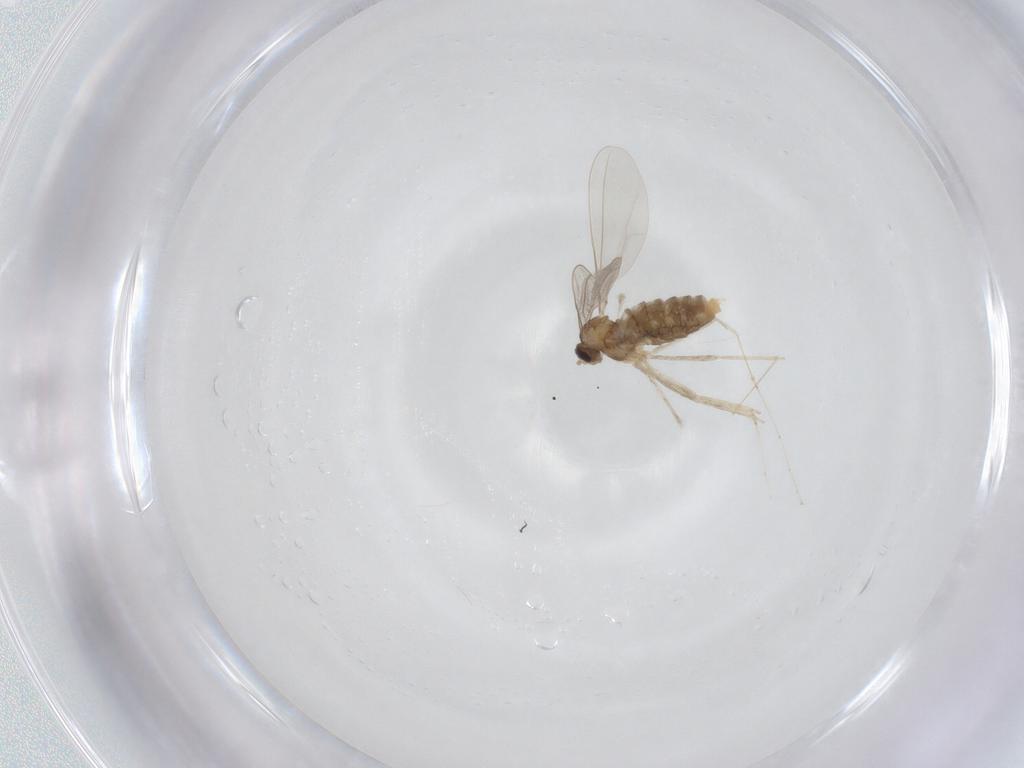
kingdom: Animalia
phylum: Arthropoda
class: Insecta
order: Diptera
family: Cecidomyiidae
